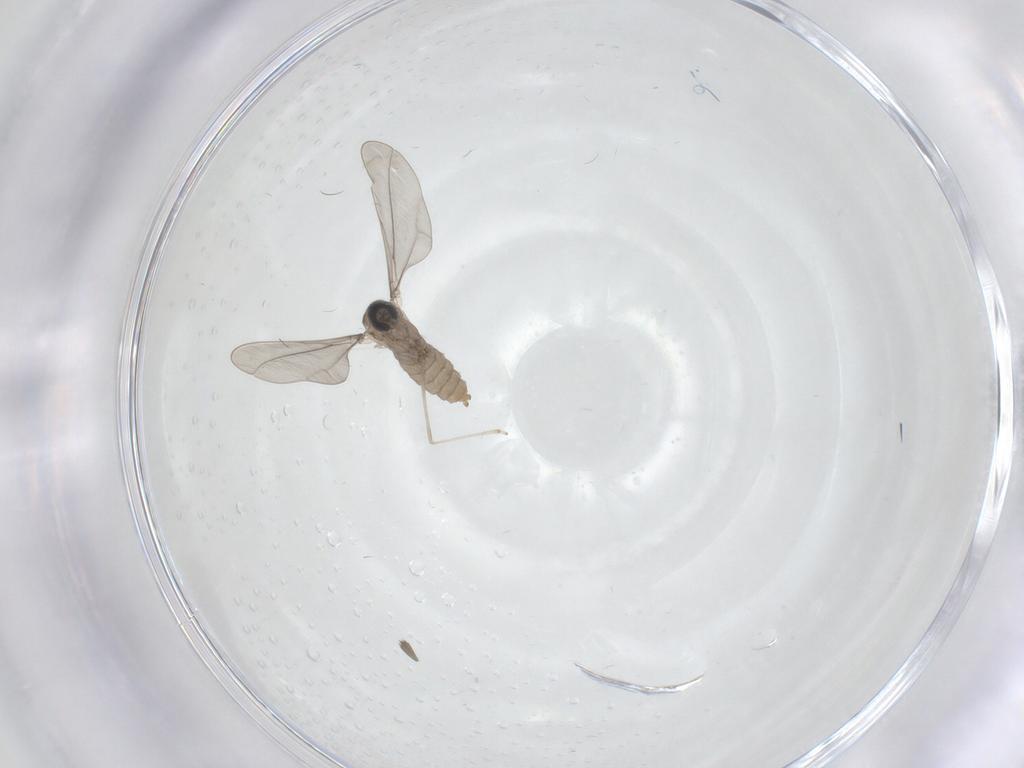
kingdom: Animalia
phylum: Arthropoda
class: Insecta
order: Diptera
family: Cecidomyiidae
